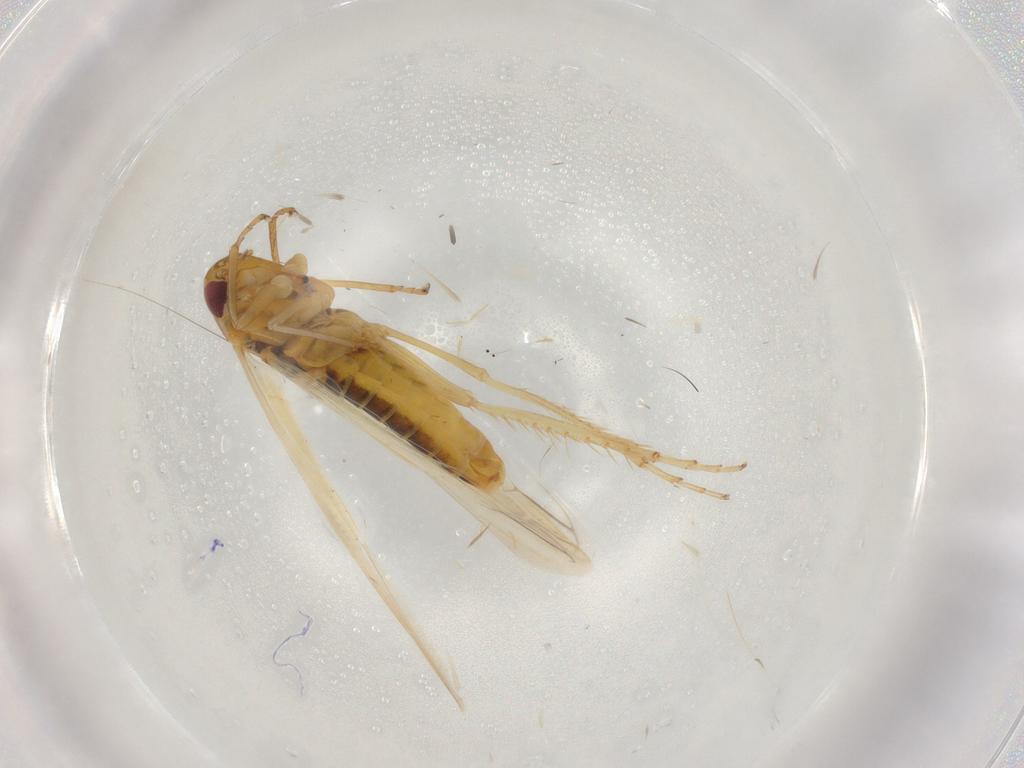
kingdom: Animalia
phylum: Arthropoda
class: Insecta
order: Hemiptera
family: Cicadellidae
